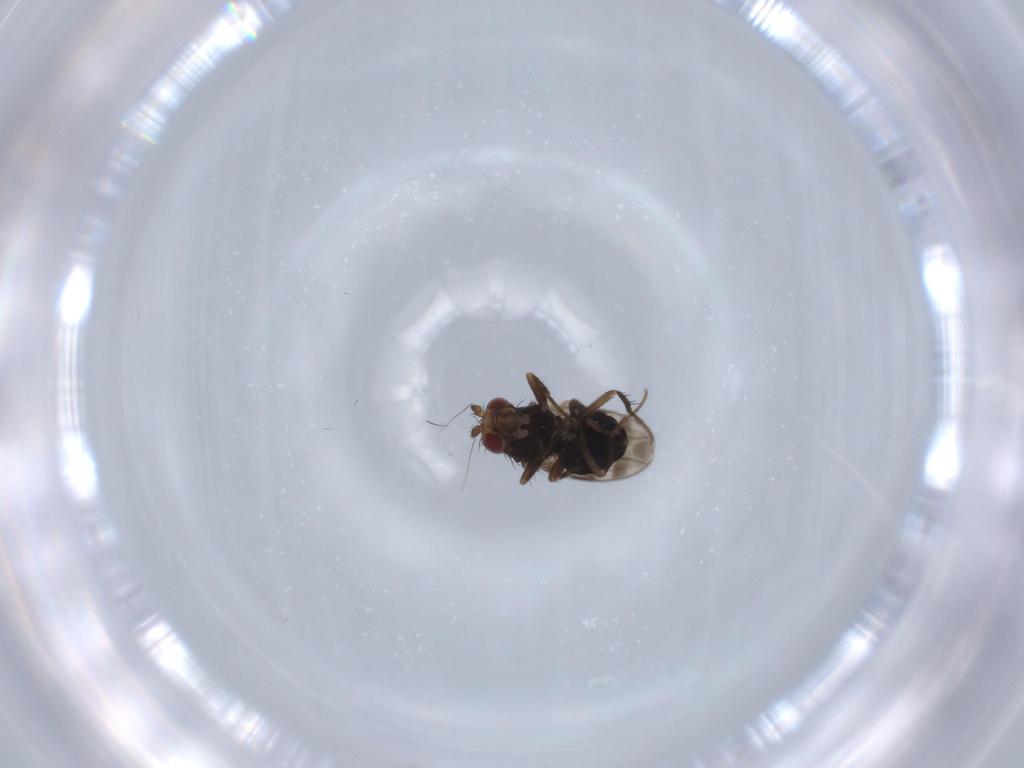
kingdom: Animalia
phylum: Arthropoda
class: Insecta
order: Diptera
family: Sphaeroceridae
